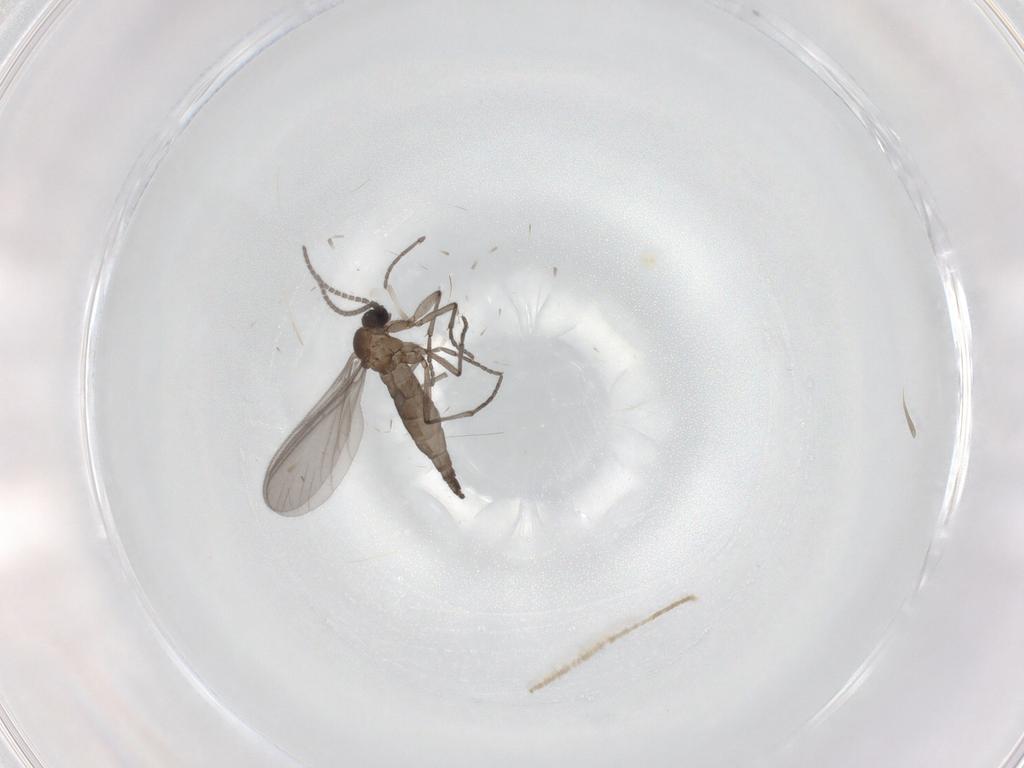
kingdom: Animalia
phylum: Arthropoda
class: Insecta
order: Diptera
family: Sciaridae
